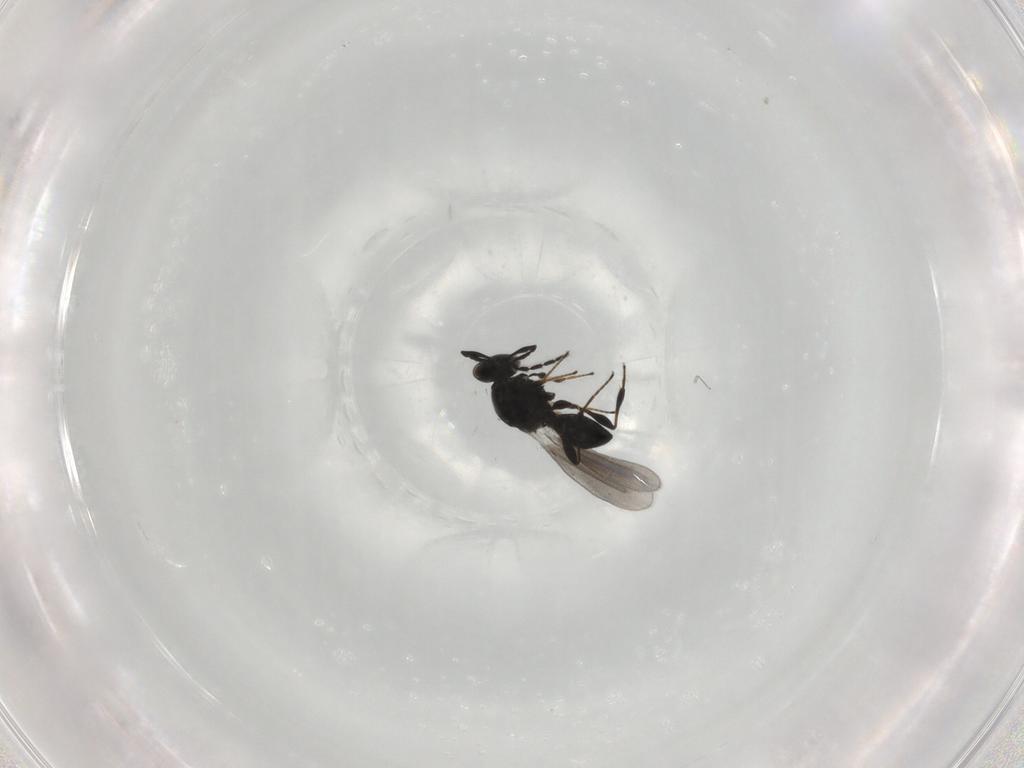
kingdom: Animalia
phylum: Arthropoda
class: Insecta
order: Hymenoptera
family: Platygastridae
